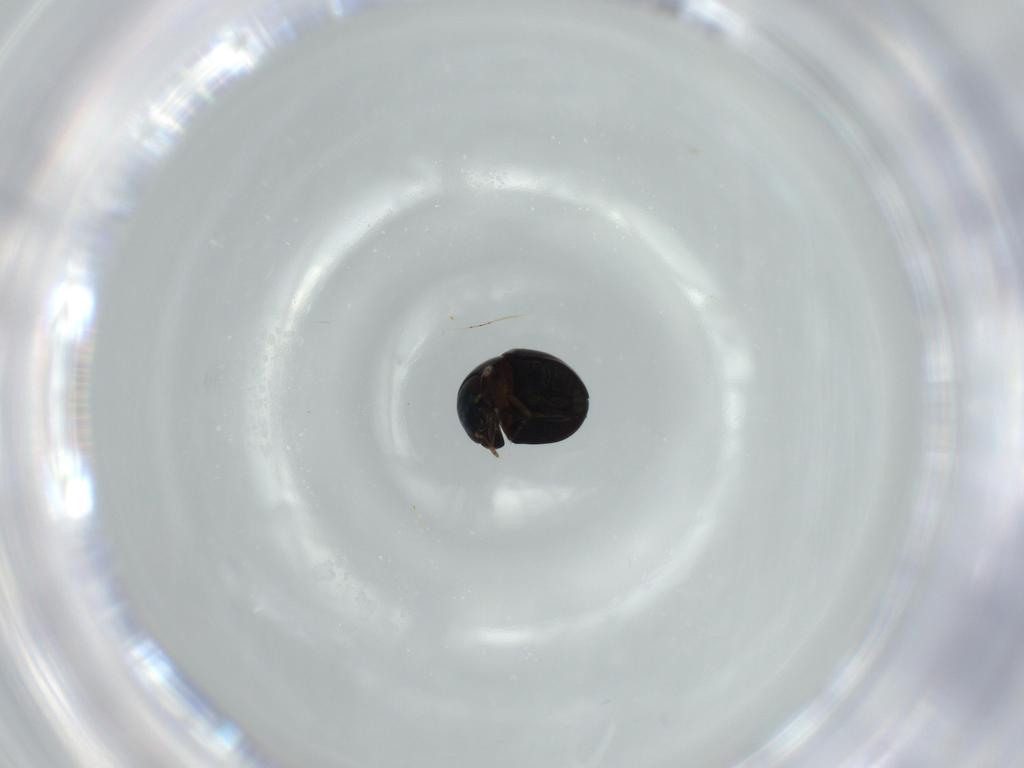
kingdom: Animalia
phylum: Arthropoda
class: Insecta
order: Coleoptera
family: Cybocephalidae
